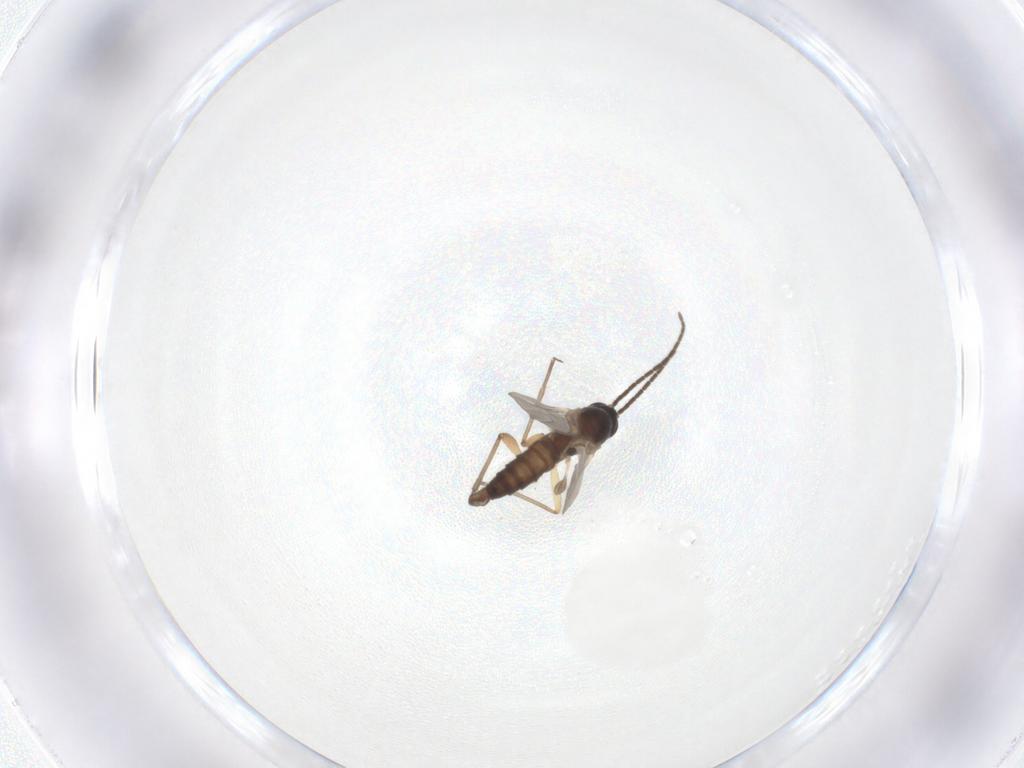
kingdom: Animalia
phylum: Arthropoda
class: Insecta
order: Diptera
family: Sciaridae
